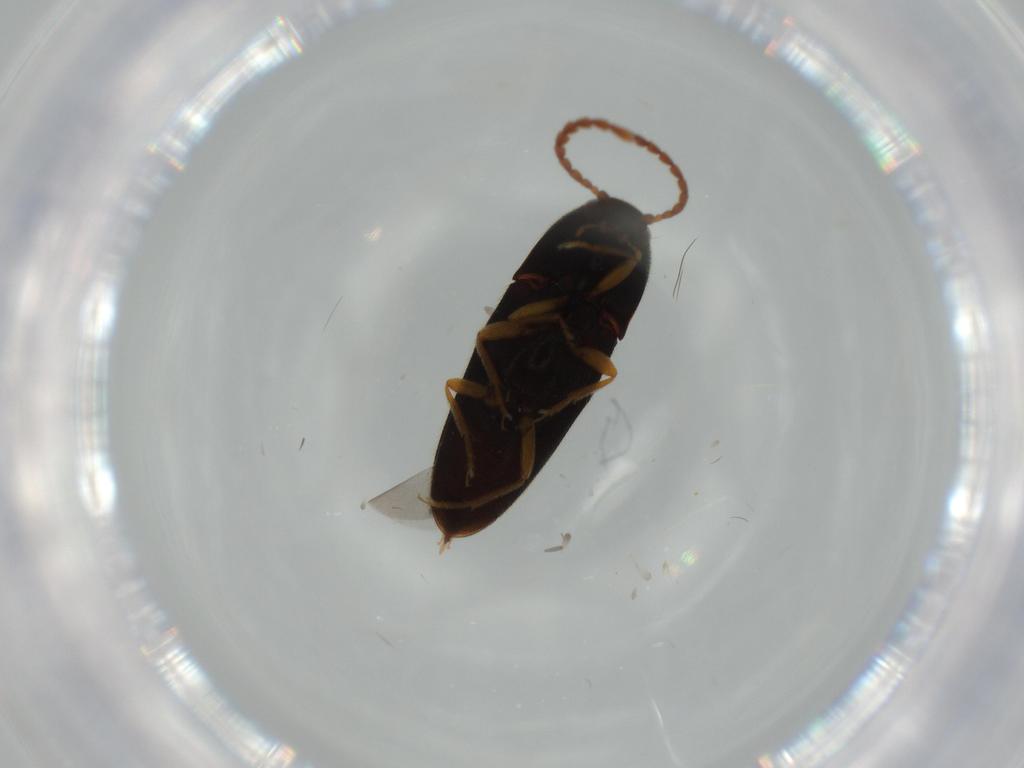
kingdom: Animalia
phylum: Arthropoda
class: Insecta
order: Coleoptera
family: Elateridae
